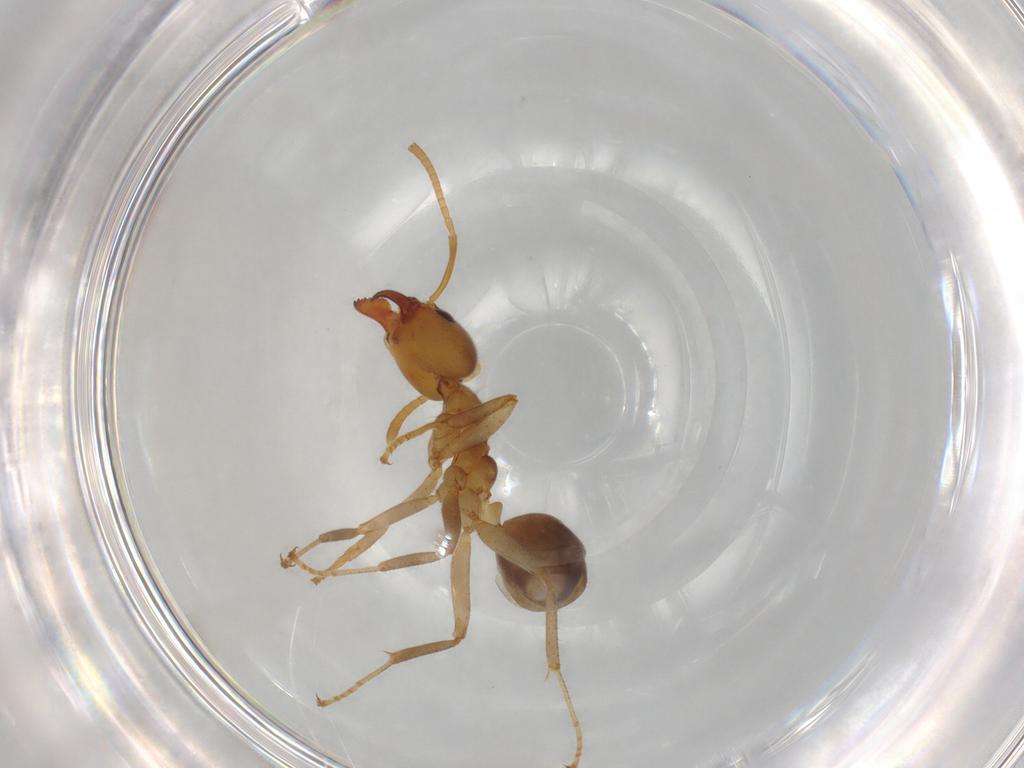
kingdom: Animalia
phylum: Arthropoda
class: Insecta
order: Hymenoptera
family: Formicidae
